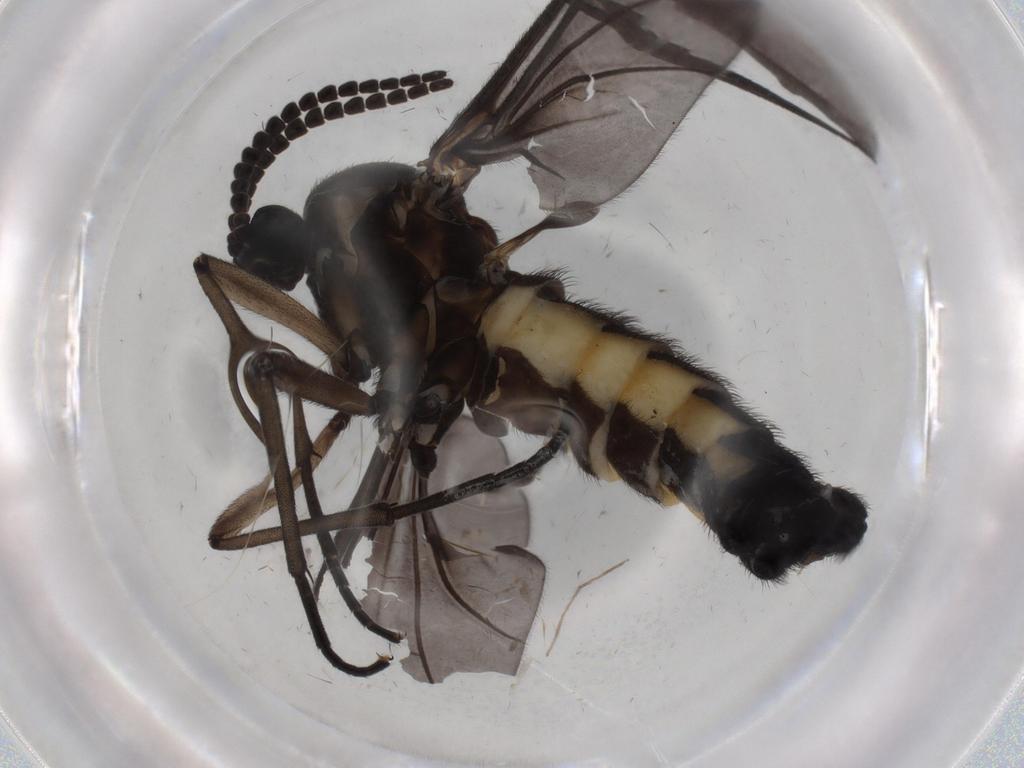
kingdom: Animalia
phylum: Arthropoda
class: Insecta
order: Diptera
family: Sciaridae
